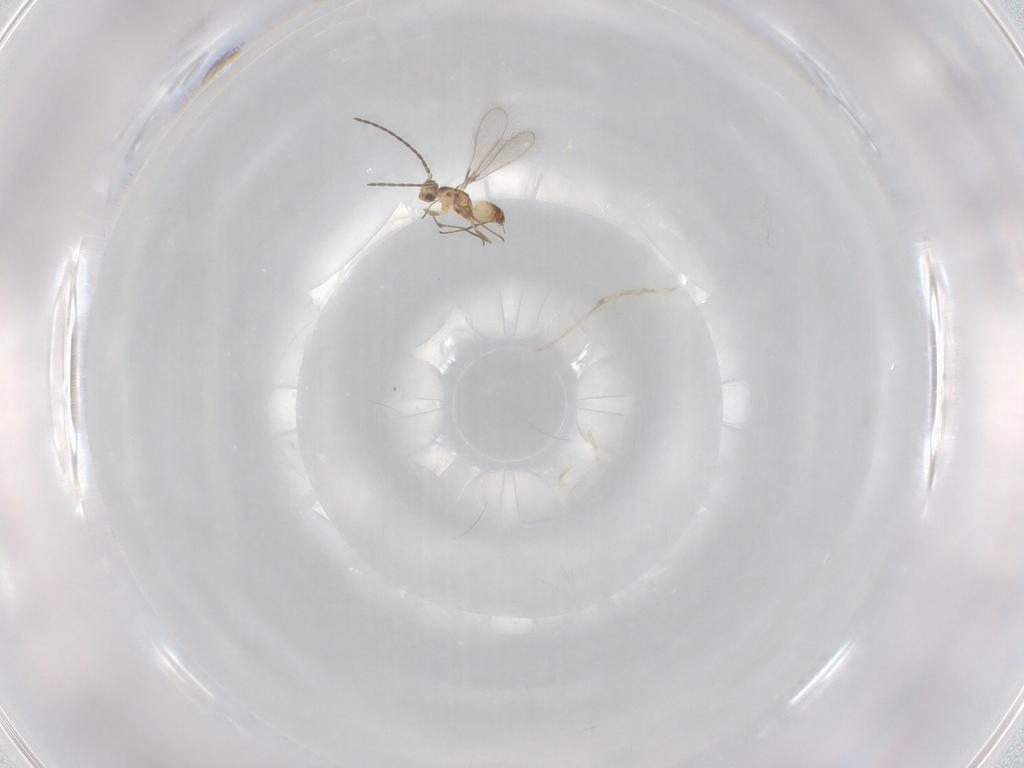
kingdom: Animalia
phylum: Arthropoda
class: Insecta
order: Hymenoptera
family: Mymaridae
